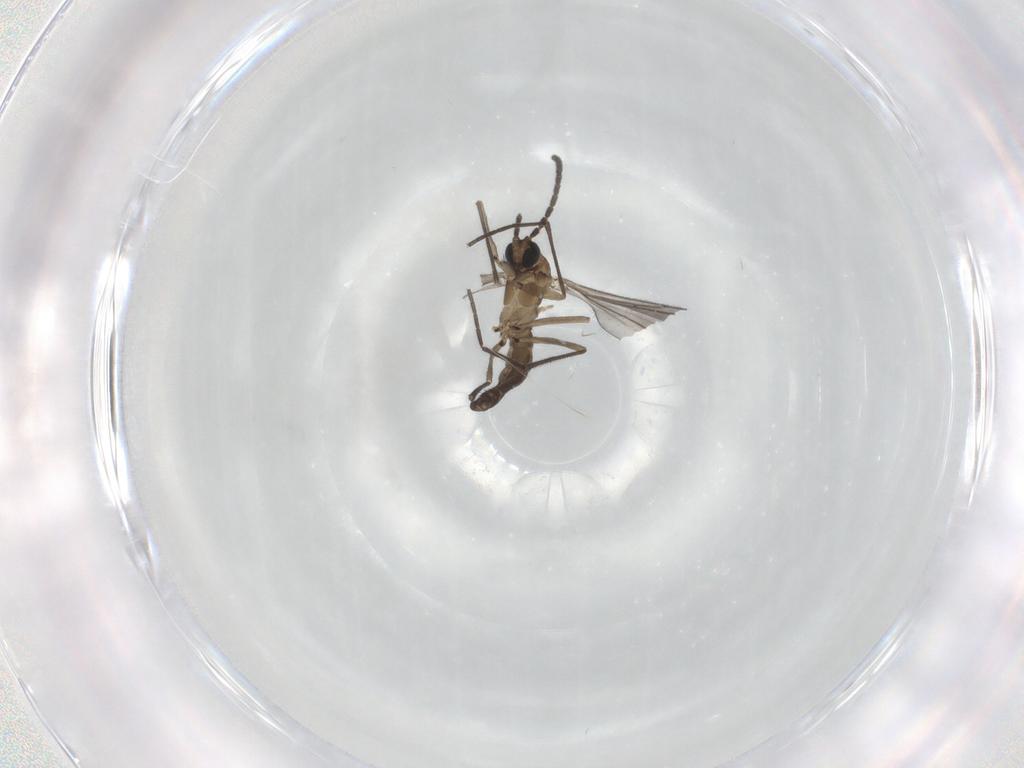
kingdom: Animalia
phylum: Arthropoda
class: Insecta
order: Diptera
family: Sciaridae
